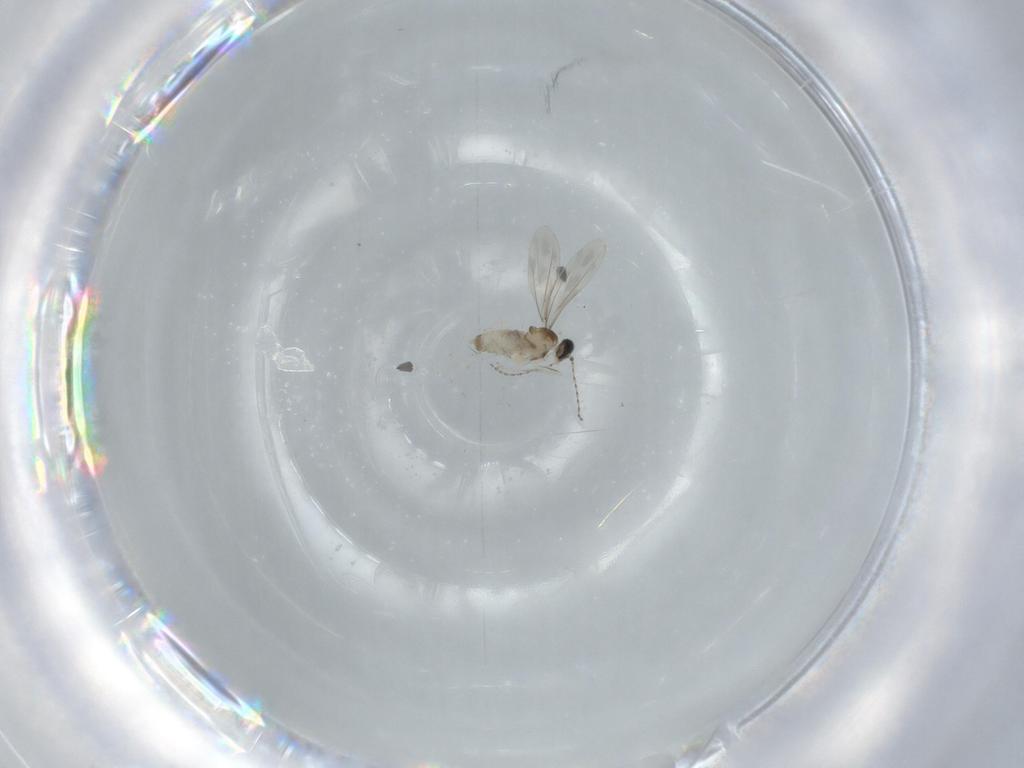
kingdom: Animalia
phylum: Arthropoda
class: Insecta
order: Diptera
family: Cecidomyiidae
